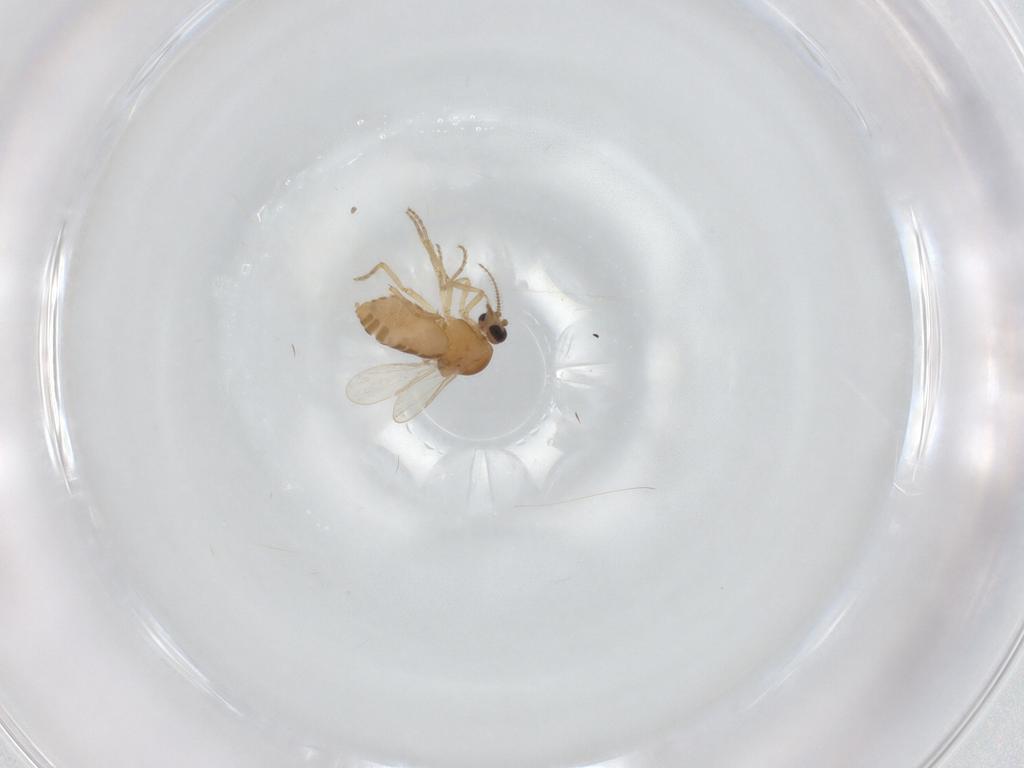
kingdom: Animalia
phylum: Arthropoda
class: Insecta
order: Diptera
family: Ceratopogonidae
